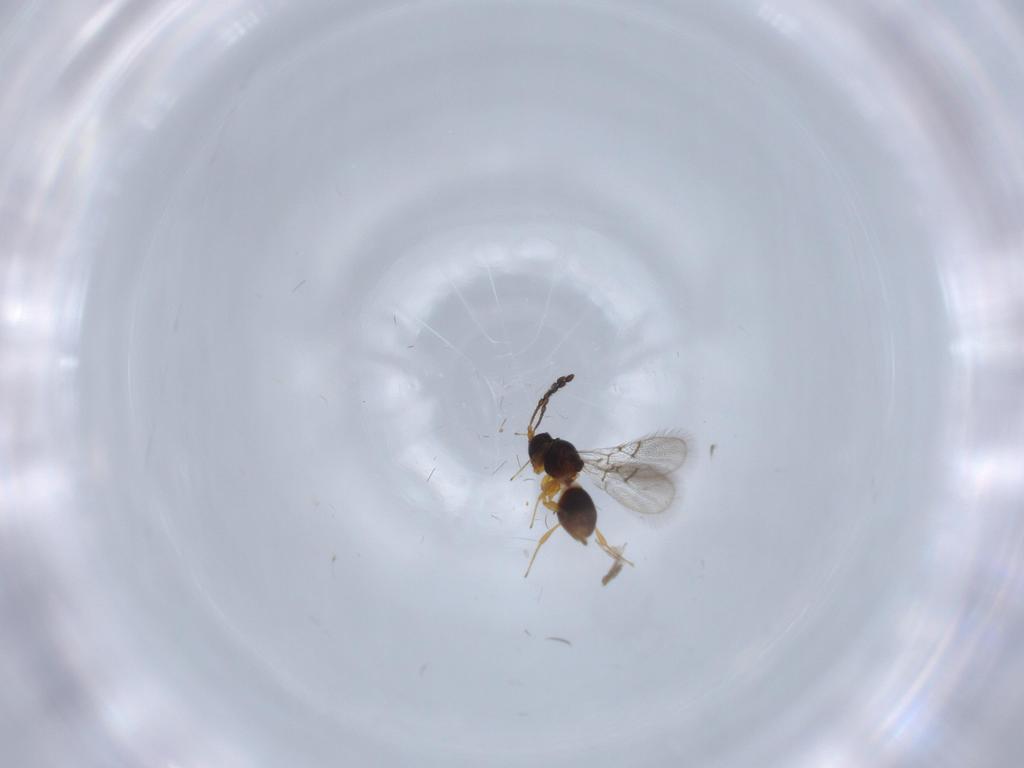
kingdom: Animalia
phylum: Arthropoda
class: Insecta
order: Hymenoptera
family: Figitidae
